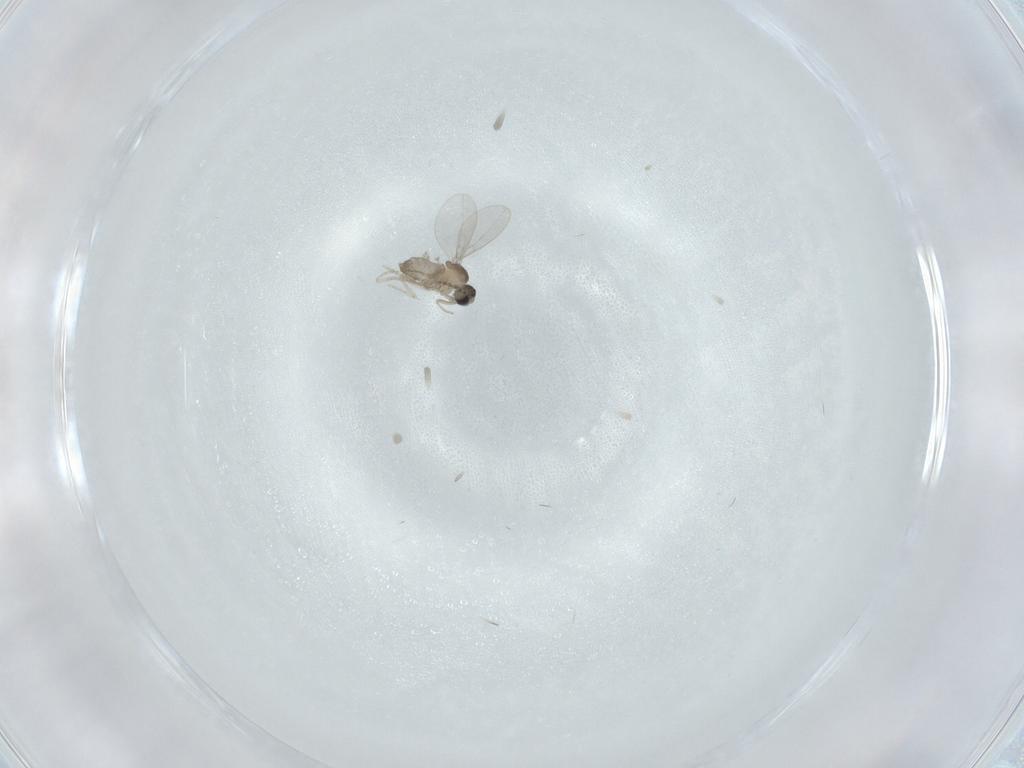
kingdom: Animalia
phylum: Arthropoda
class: Insecta
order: Diptera
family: Cecidomyiidae
